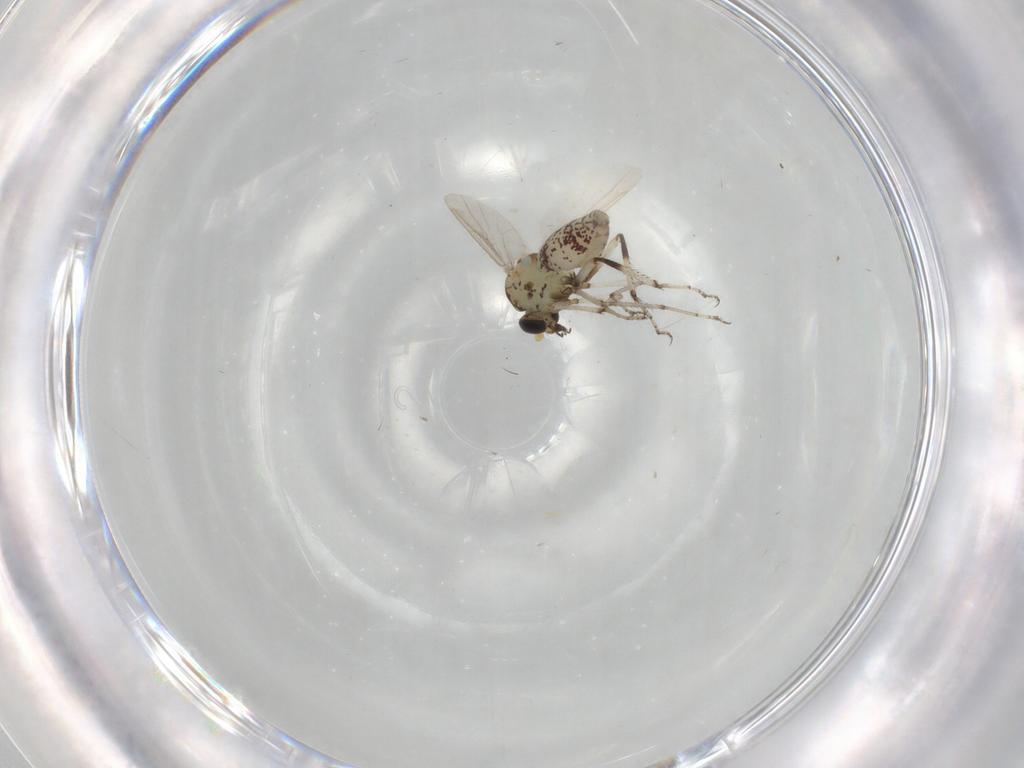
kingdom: Animalia
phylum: Arthropoda
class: Insecta
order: Diptera
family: Ceratopogonidae
